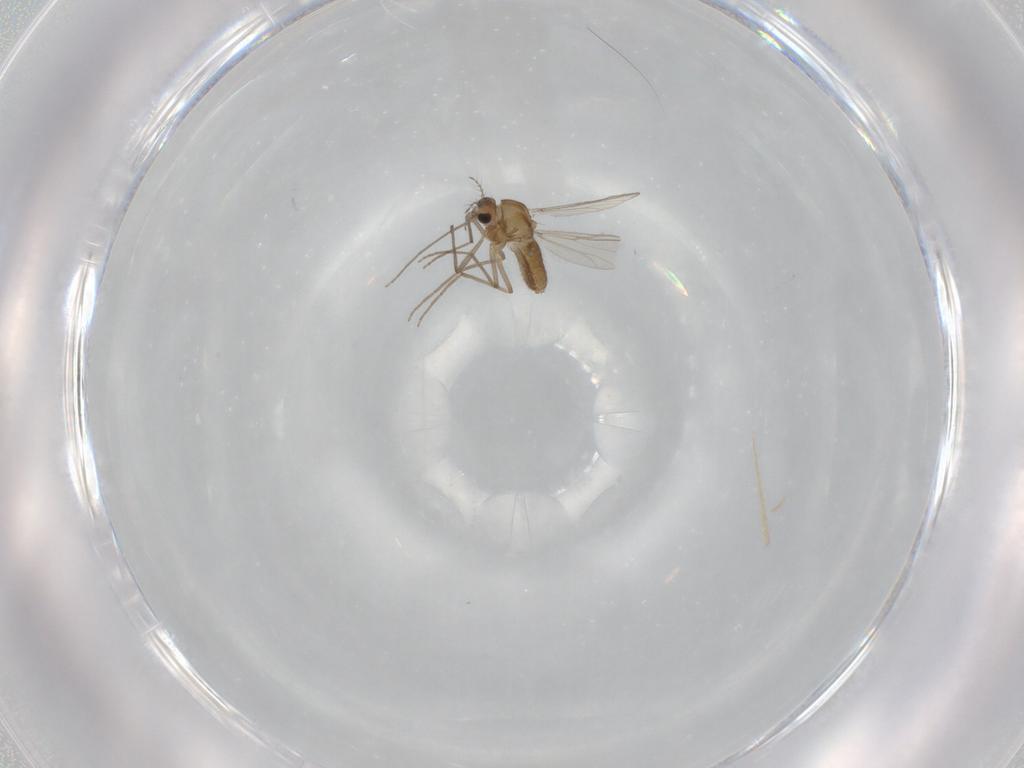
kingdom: Animalia
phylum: Arthropoda
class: Insecta
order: Diptera
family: Chironomidae
